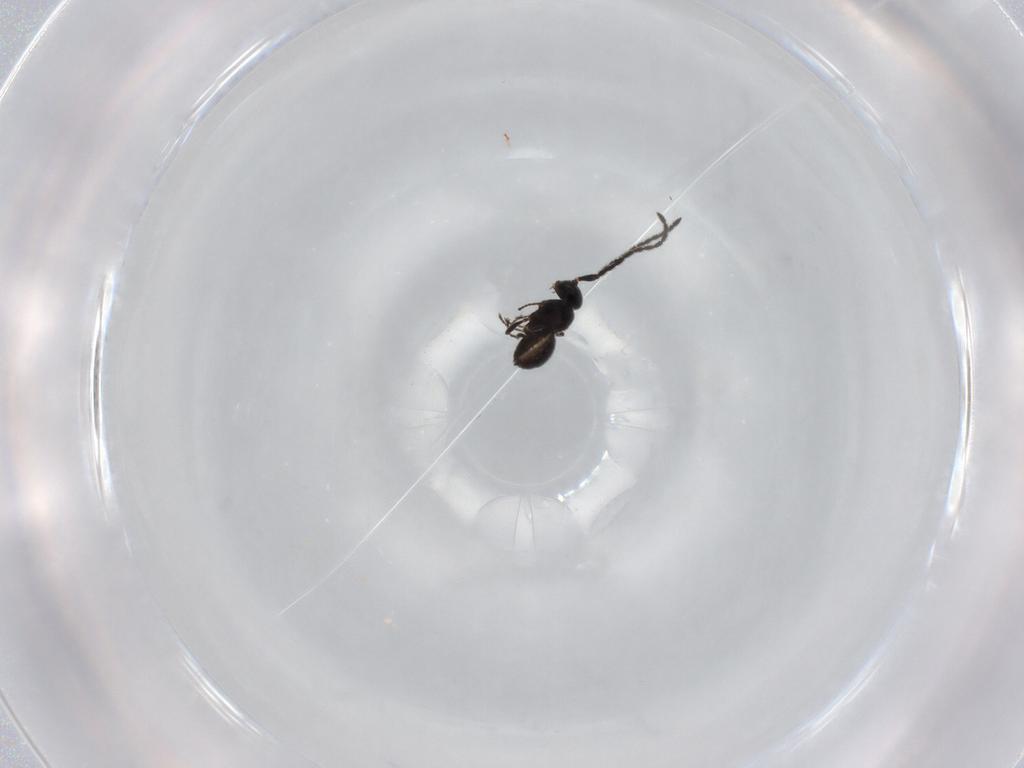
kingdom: Animalia
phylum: Arthropoda
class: Insecta
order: Hymenoptera
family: Scelionidae
